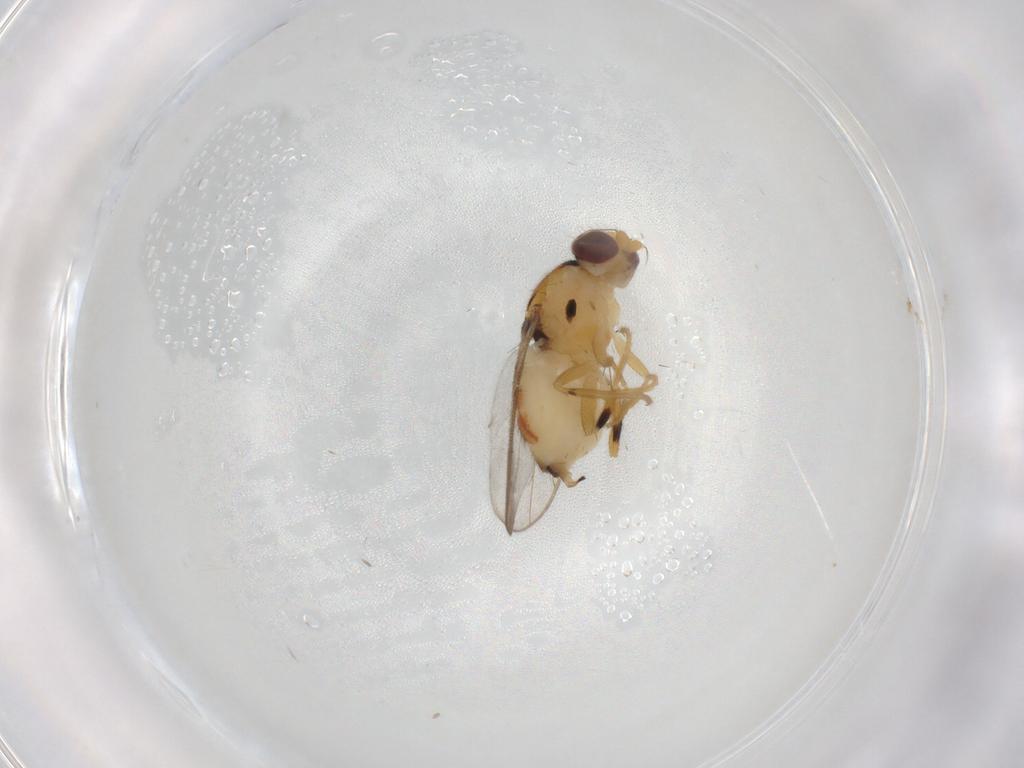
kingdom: Animalia
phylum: Arthropoda
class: Insecta
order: Diptera
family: Chloropidae
